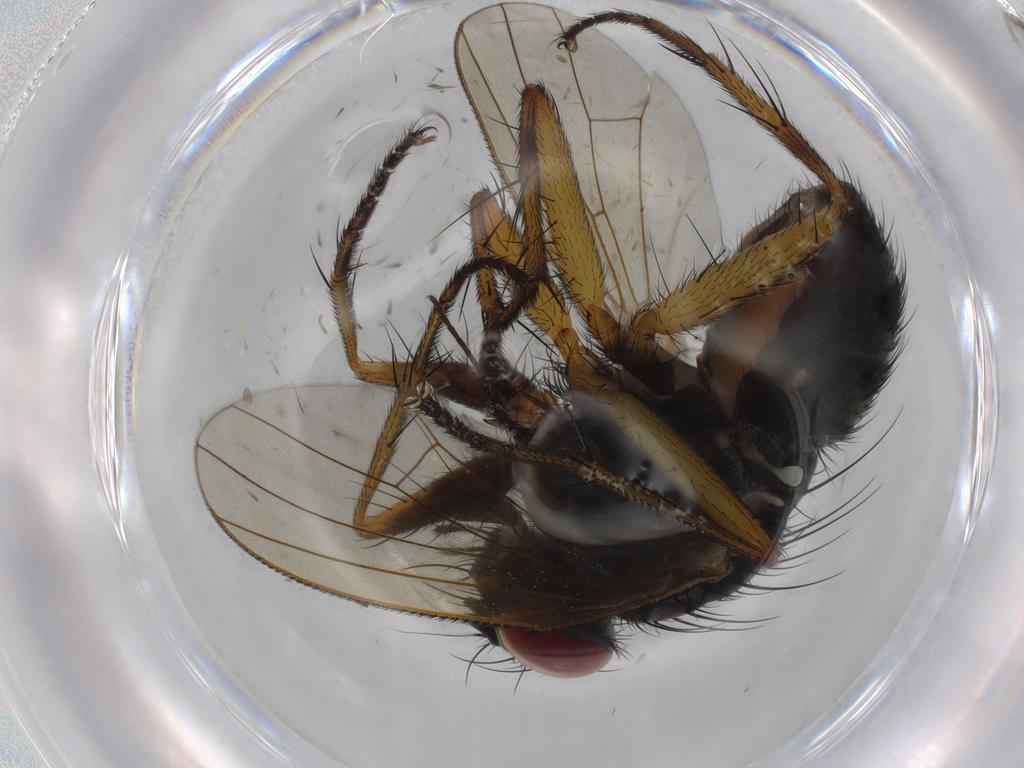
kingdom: Animalia
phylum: Arthropoda
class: Insecta
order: Diptera
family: Muscidae
